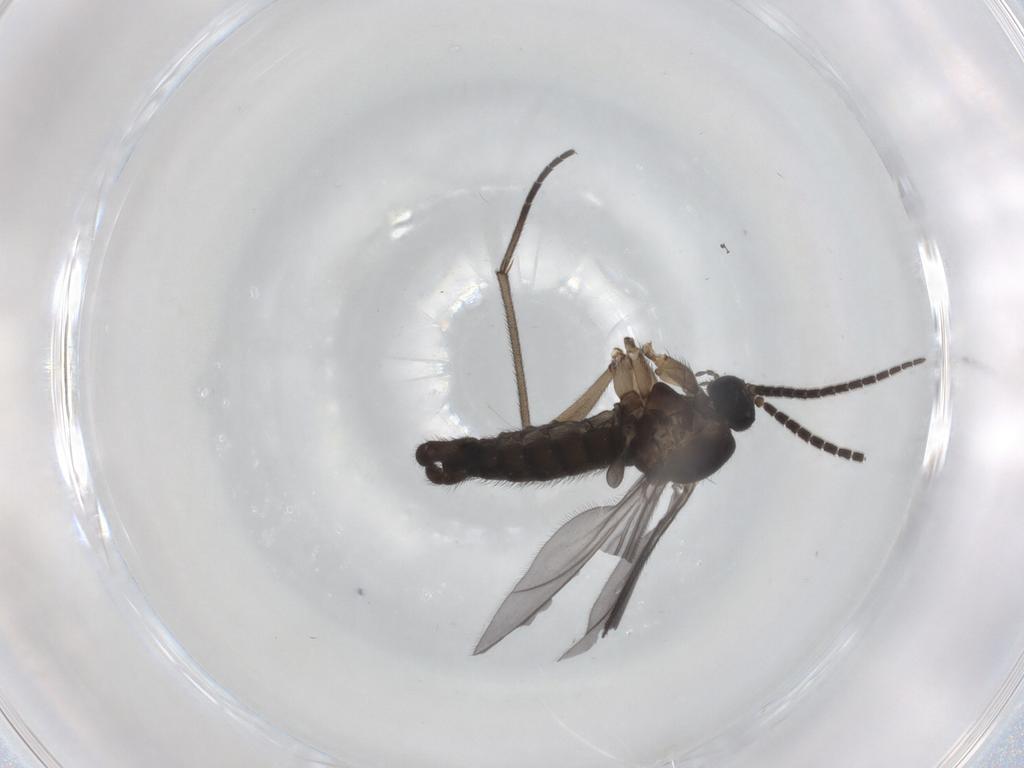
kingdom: Animalia
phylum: Arthropoda
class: Insecta
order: Diptera
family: Sciaridae
